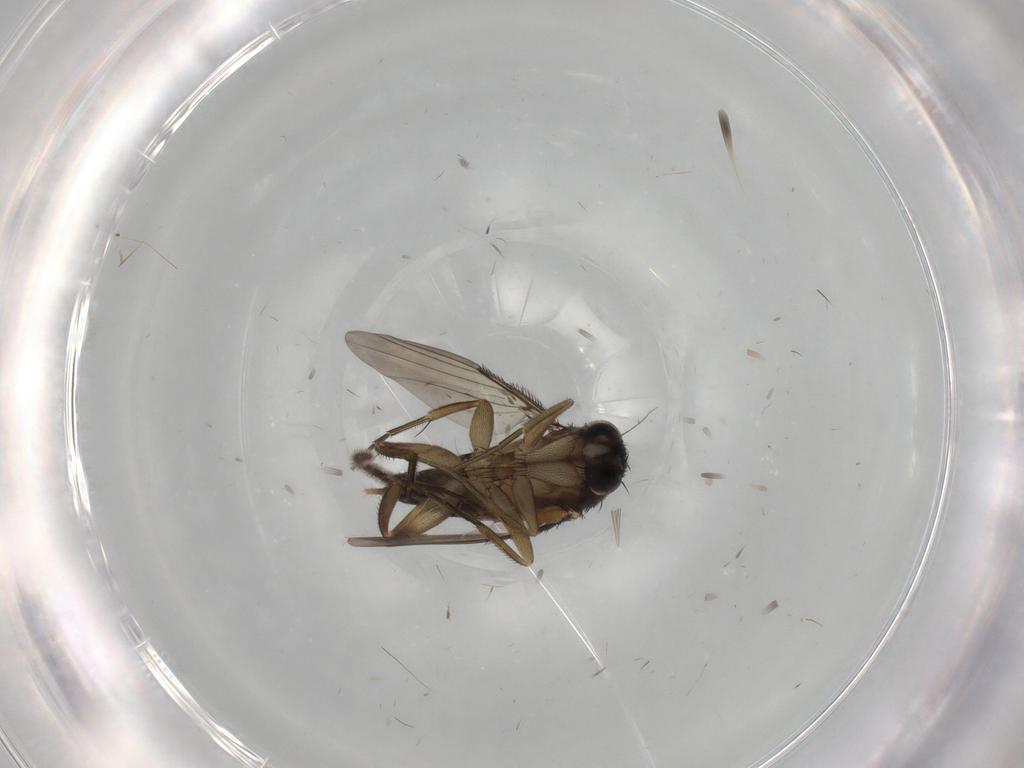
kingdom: Animalia
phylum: Arthropoda
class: Insecta
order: Diptera
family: Phoridae
